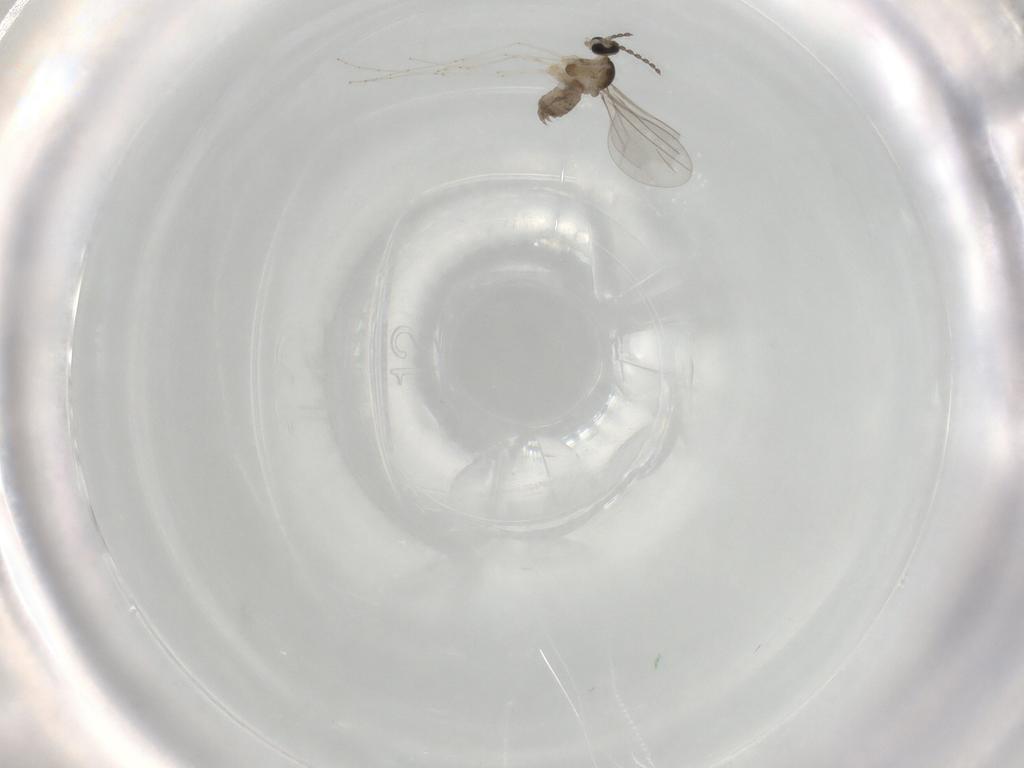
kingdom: Animalia
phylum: Arthropoda
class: Insecta
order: Diptera
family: Cecidomyiidae
